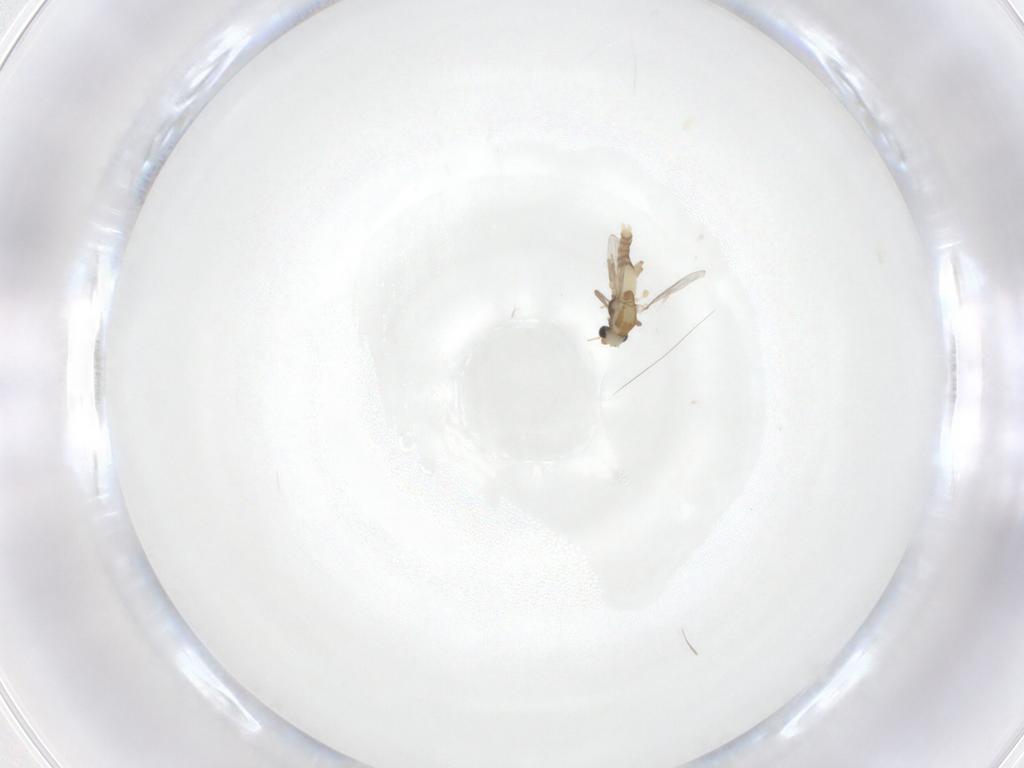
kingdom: Animalia
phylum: Arthropoda
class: Insecta
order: Diptera
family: Chironomidae
